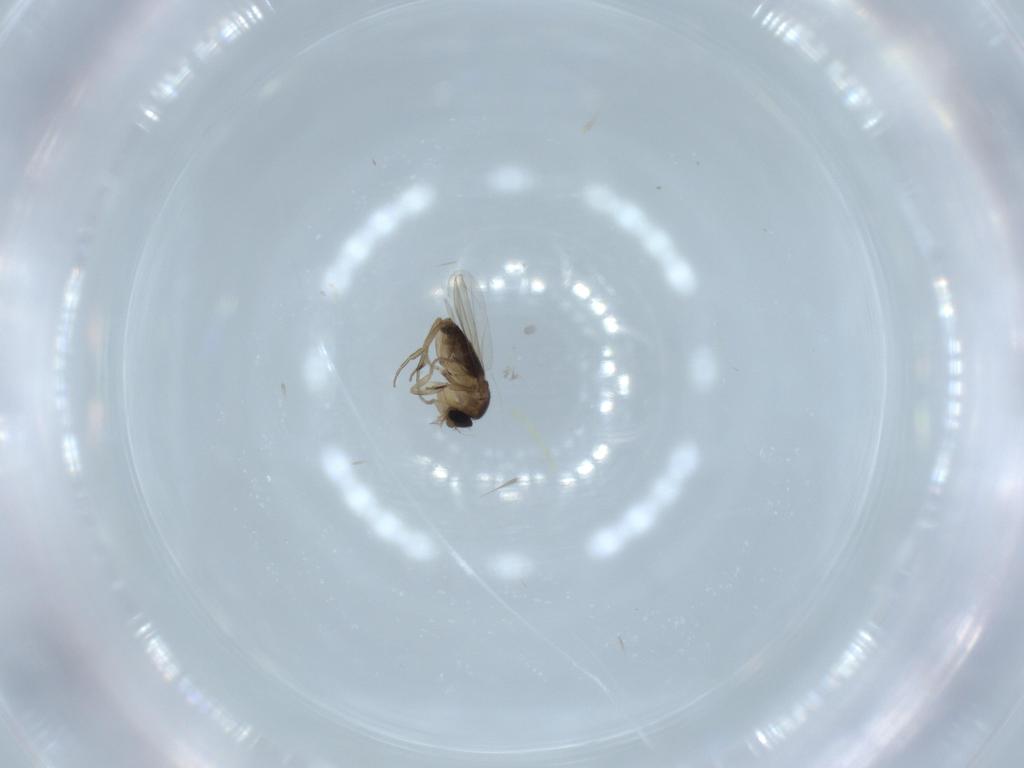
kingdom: Animalia
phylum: Arthropoda
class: Insecta
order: Diptera
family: Phoridae
